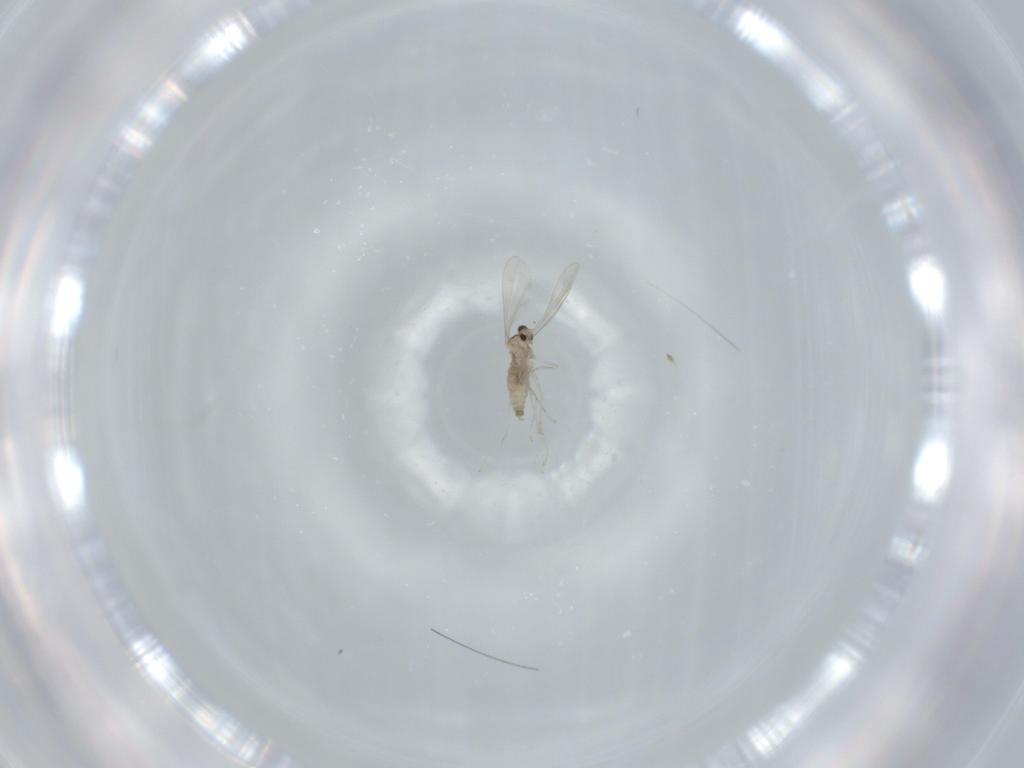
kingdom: Animalia
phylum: Arthropoda
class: Insecta
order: Diptera
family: Cecidomyiidae
